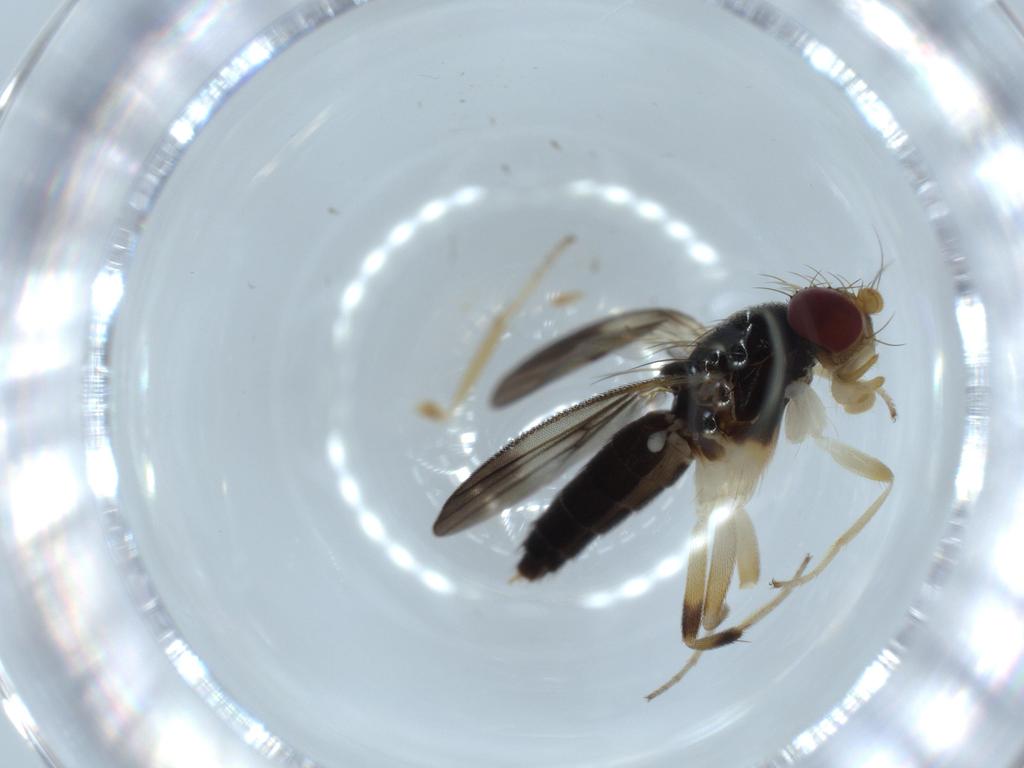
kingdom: Animalia
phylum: Arthropoda
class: Insecta
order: Diptera
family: Clusiidae
